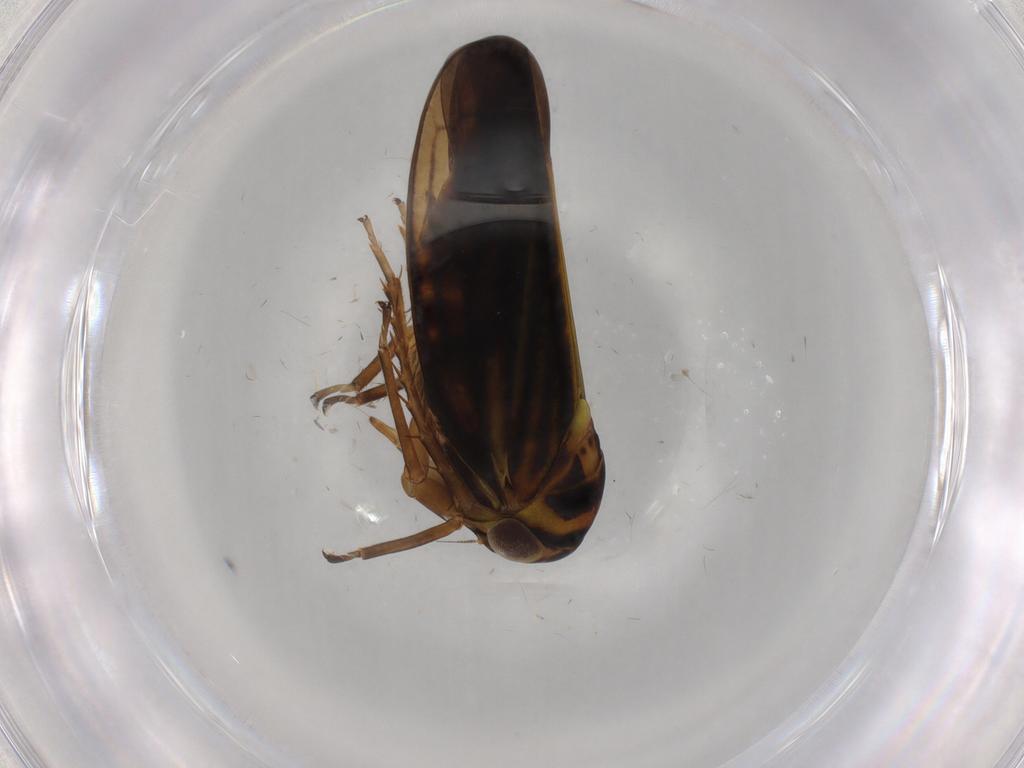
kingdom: Animalia
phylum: Arthropoda
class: Insecta
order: Hemiptera
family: Cicadellidae
